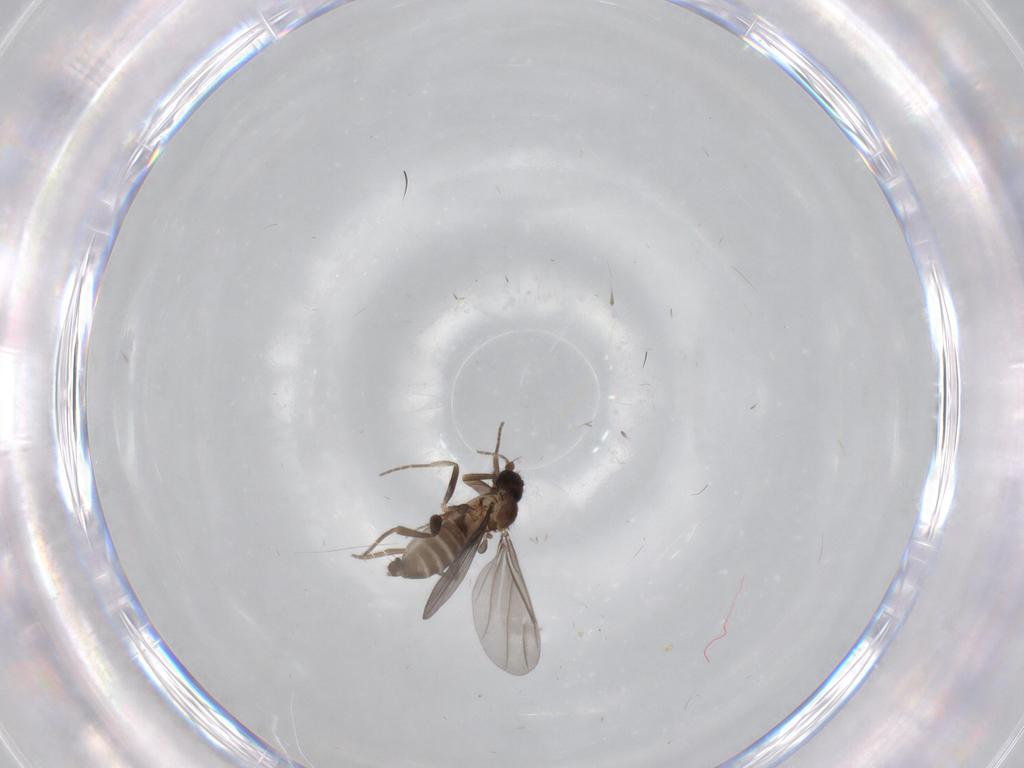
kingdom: Animalia
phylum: Arthropoda
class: Insecta
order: Diptera
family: Phoridae
